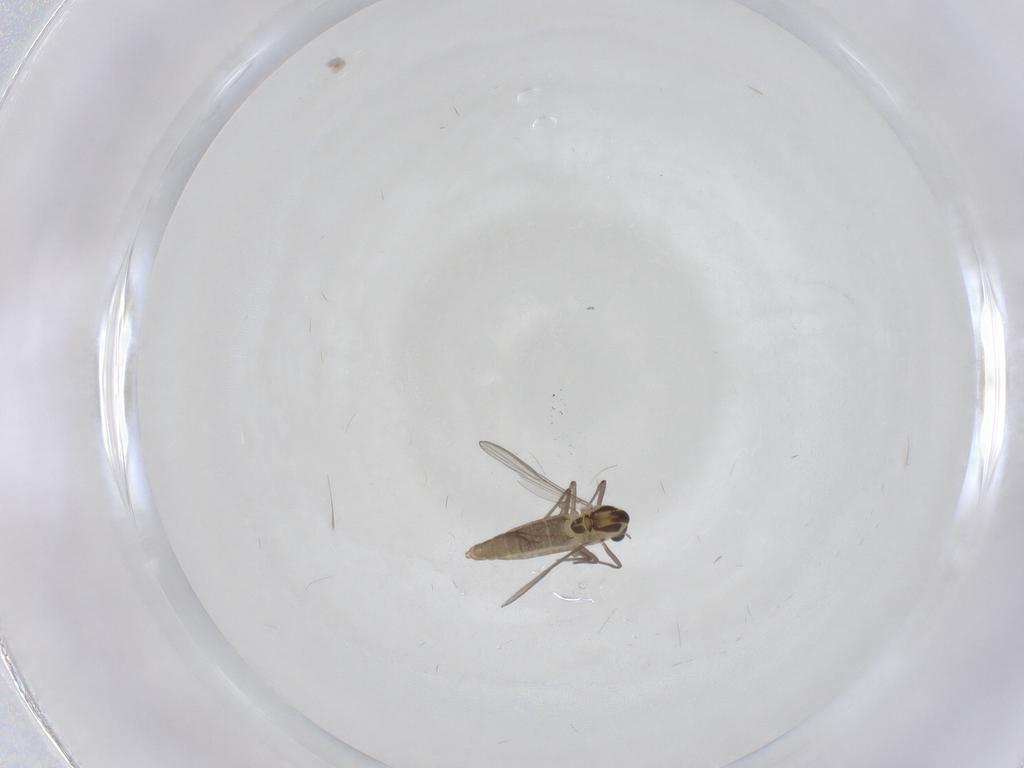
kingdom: Animalia
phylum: Arthropoda
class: Insecta
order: Diptera
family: Chironomidae
